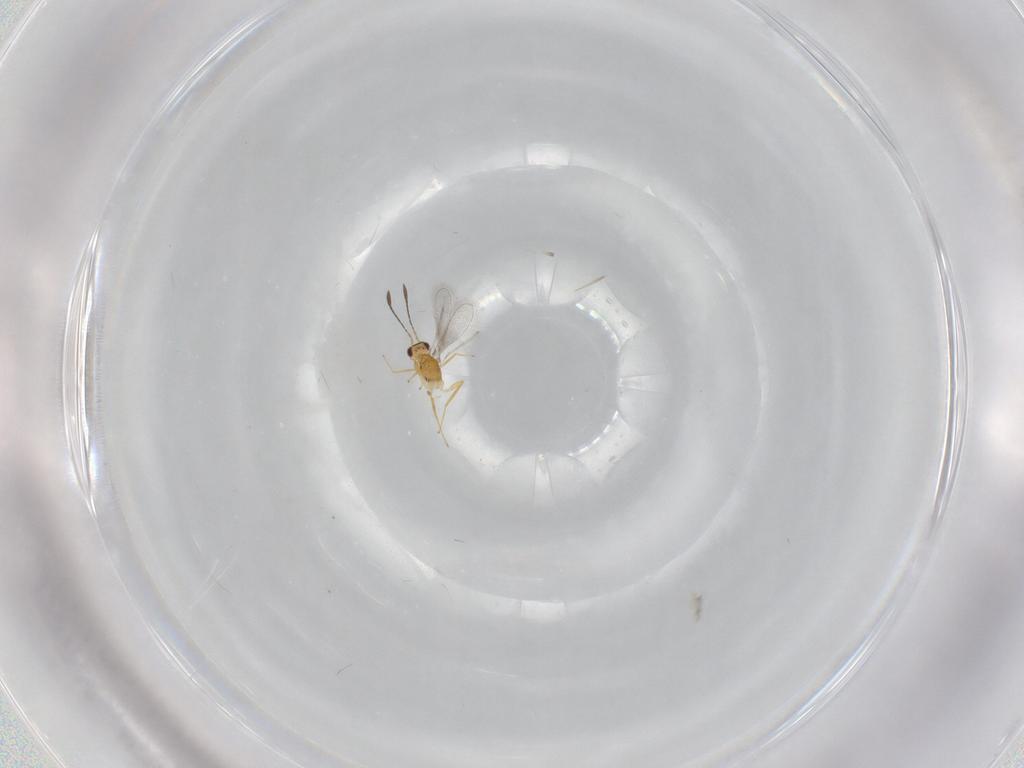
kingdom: Animalia
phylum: Arthropoda
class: Insecta
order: Hymenoptera
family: Mymaridae
